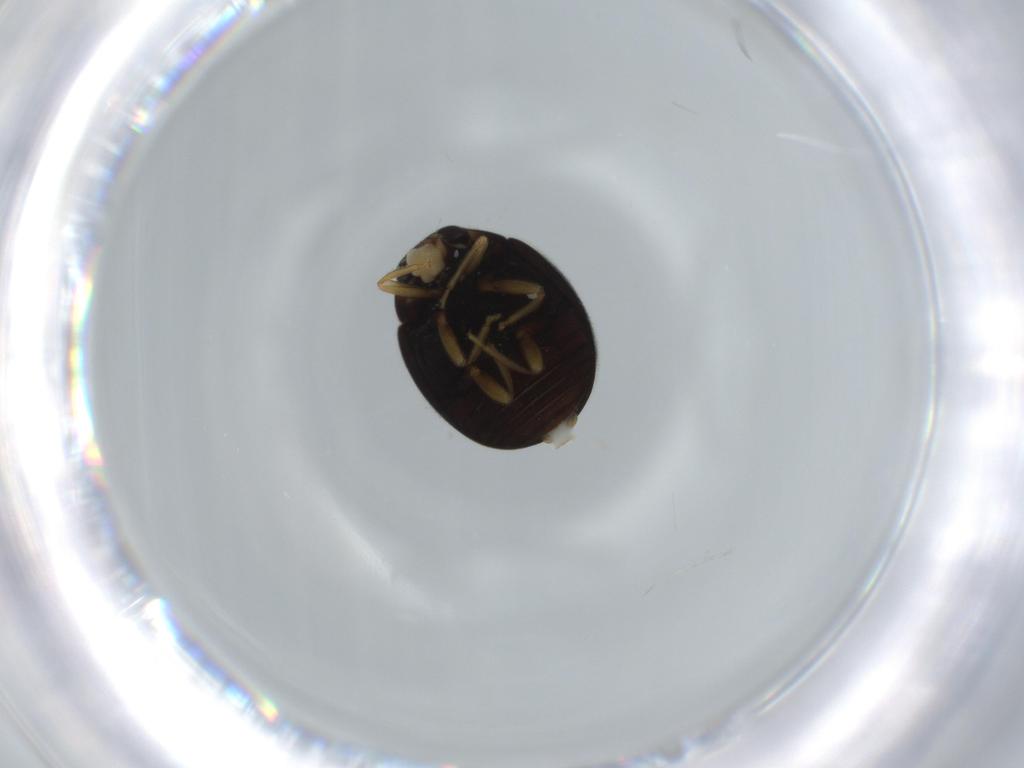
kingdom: Animalia
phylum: Arthropoda
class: Insecta
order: Coleoptera
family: Coccinellidae
